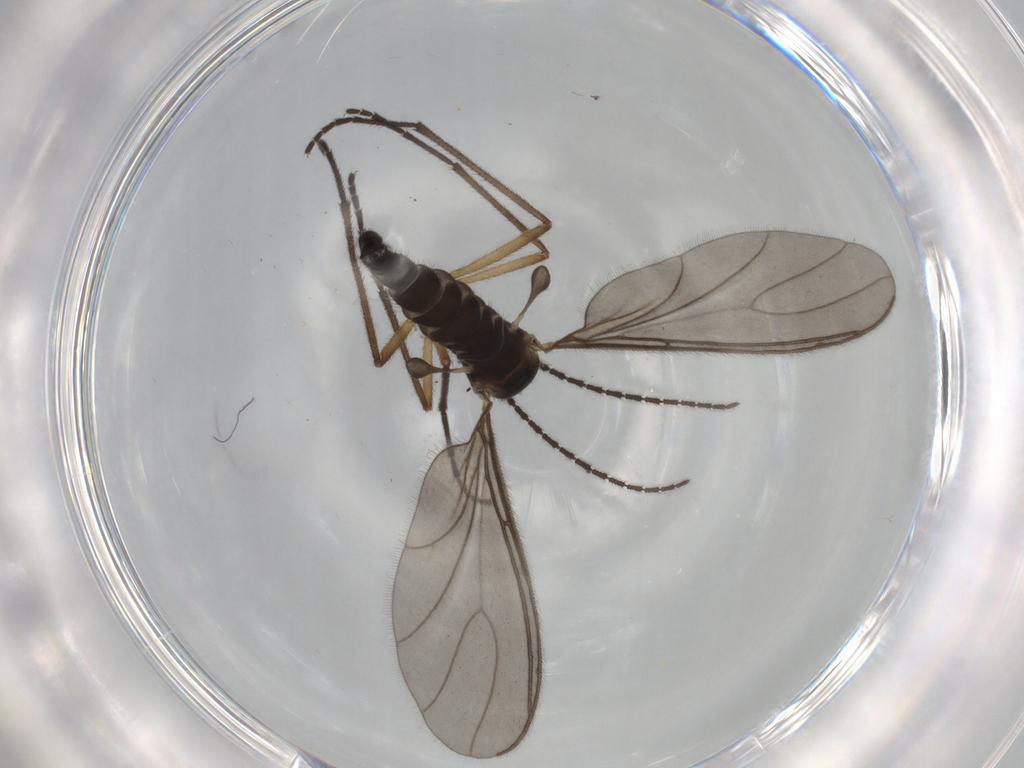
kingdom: Animalia
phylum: Arthropoda
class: Insecta
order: Diptera
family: Sciaridae
